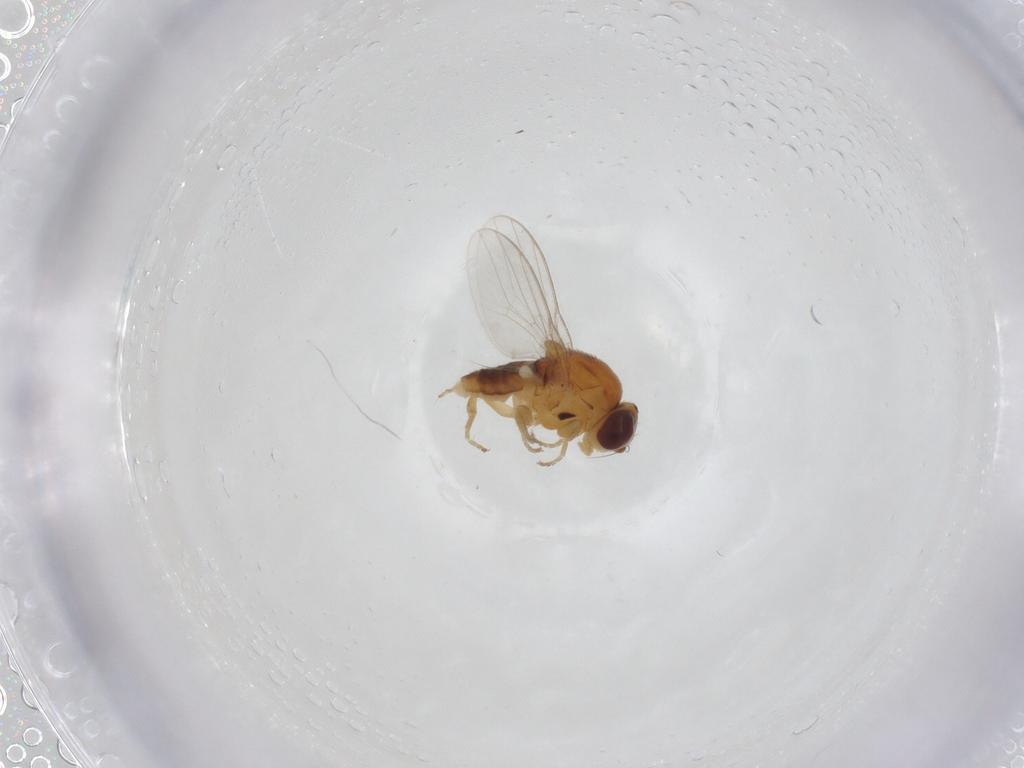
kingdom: Animalia
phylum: Arthropoda
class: Insecta
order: Diptera
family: Chloropidae
